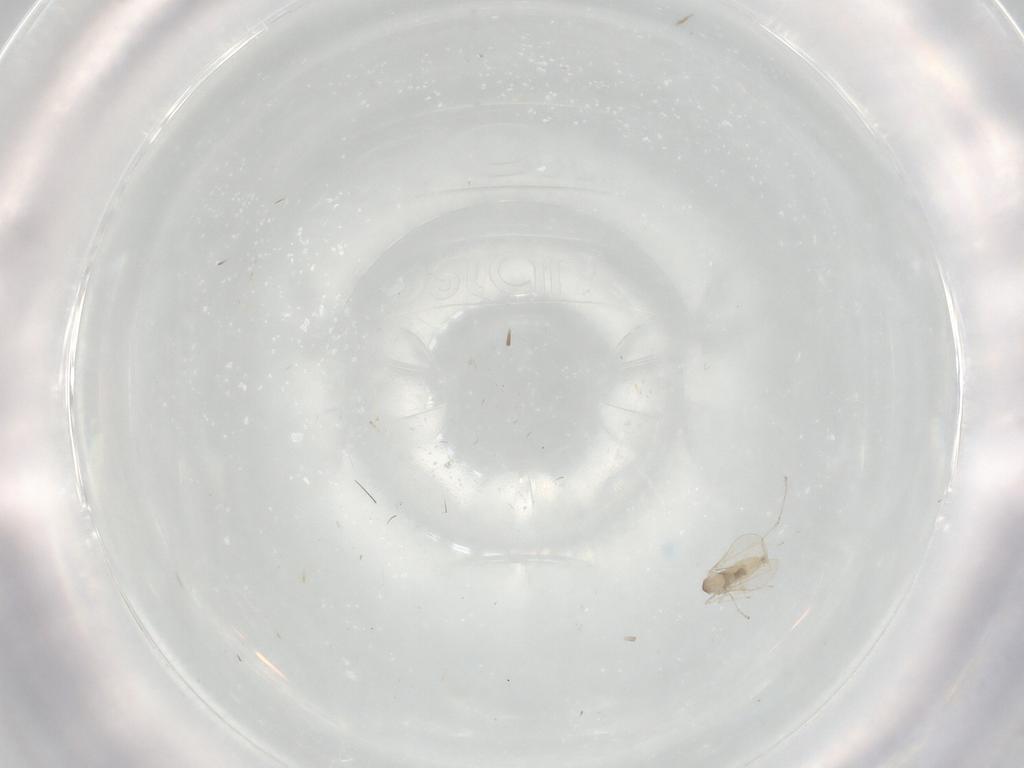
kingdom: Animalia
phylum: Arthropoda
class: Insecta
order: Diptera
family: Cecidomyiidae
